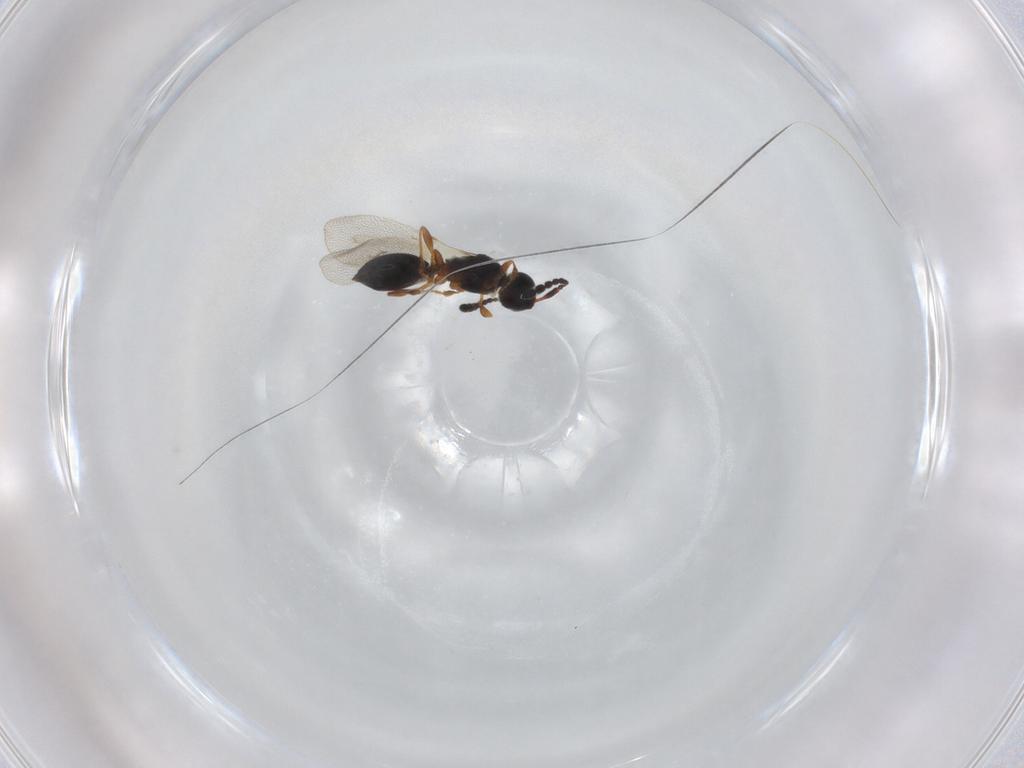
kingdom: Animalia
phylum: Arthropoda
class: Insecta
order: Hymenoptera
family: Diapriidae
